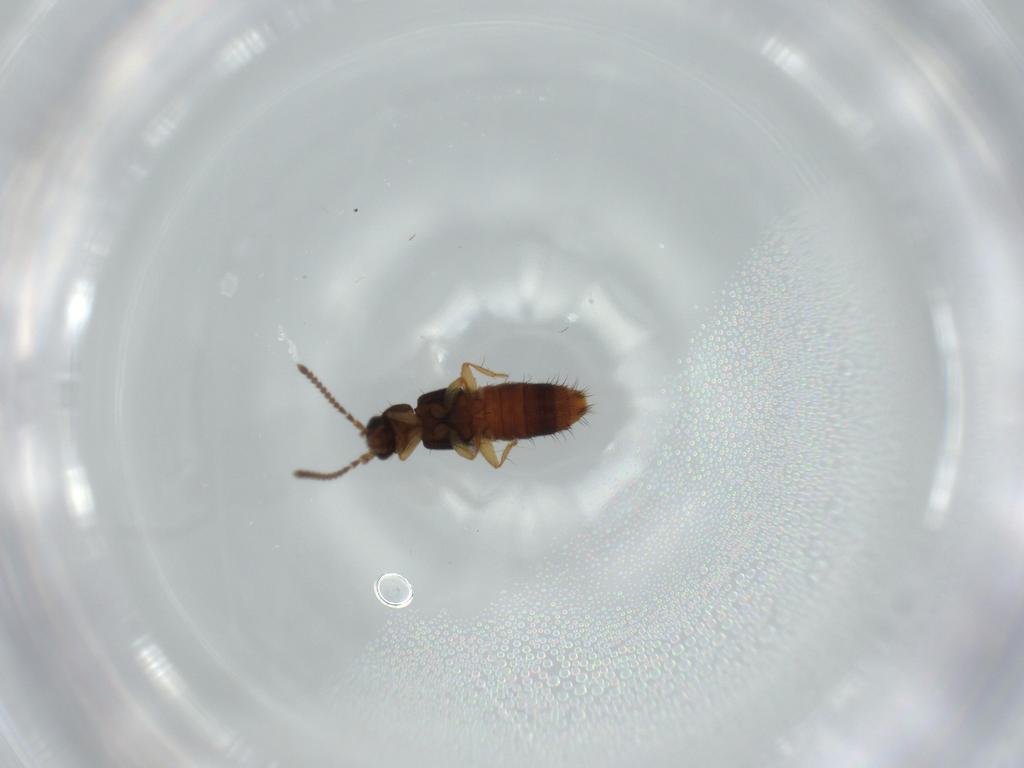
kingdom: Animalia
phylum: Arthropoda
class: Insecta
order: Coleoptera
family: Staphylinidae
